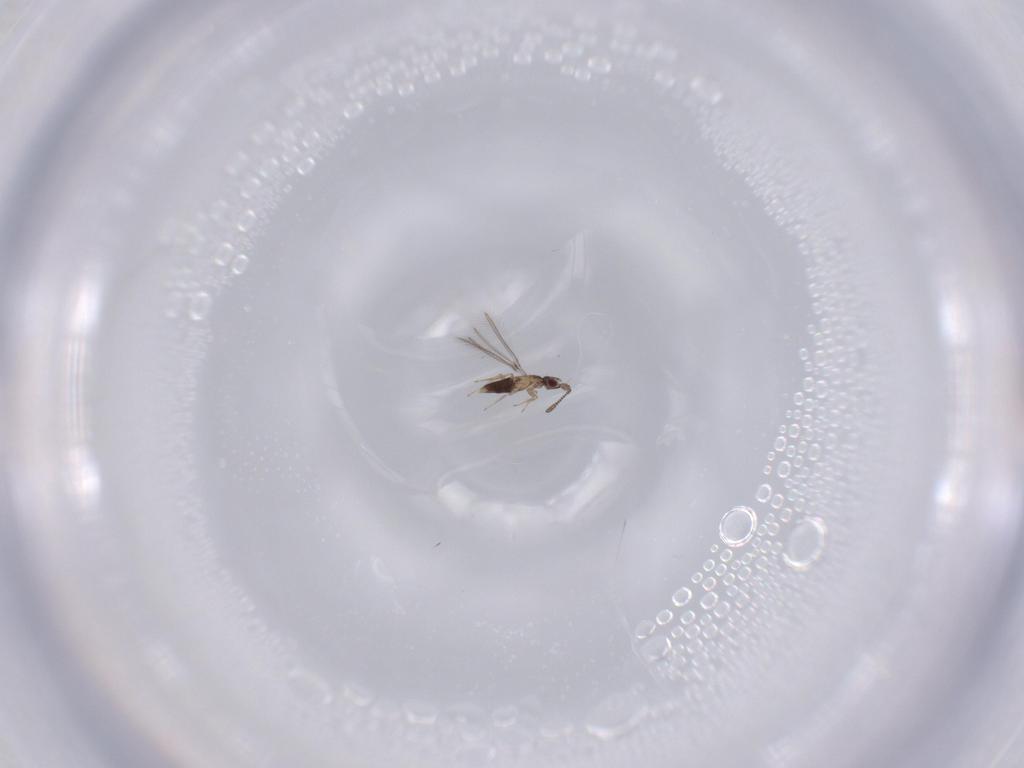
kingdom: Animalia
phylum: Arthropoda
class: Insecta
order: Hymenoptera
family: Mymaridae
